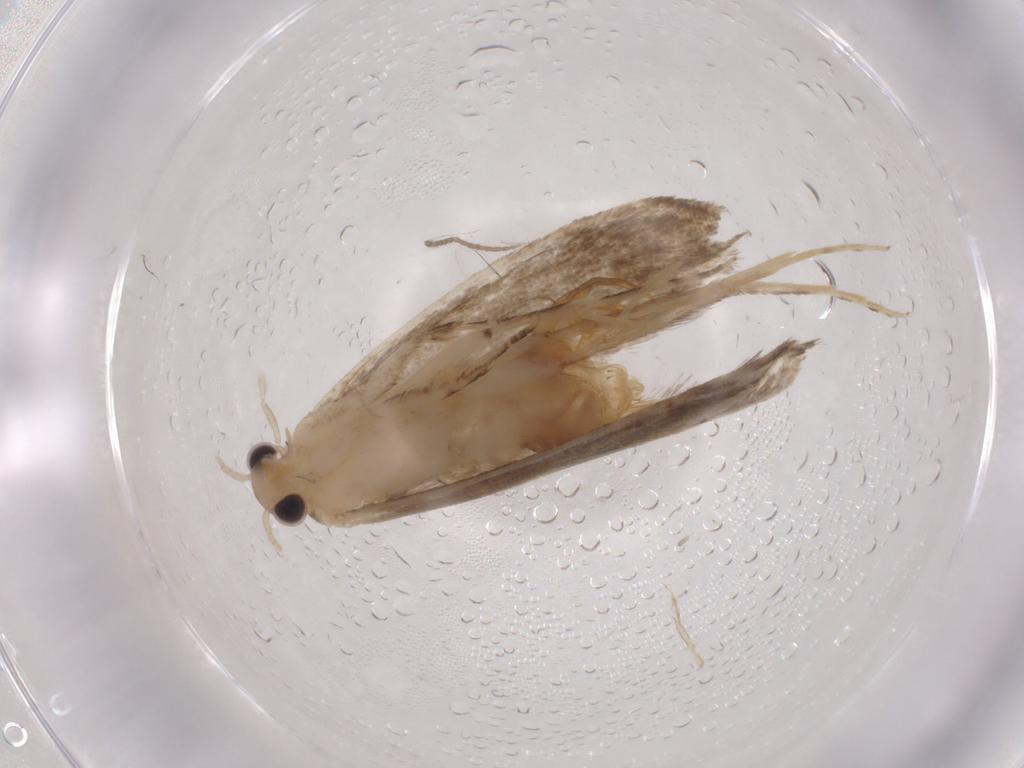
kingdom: Animalia
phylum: Arthropoda
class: Insecta
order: Lepidoptera
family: Tineidae
